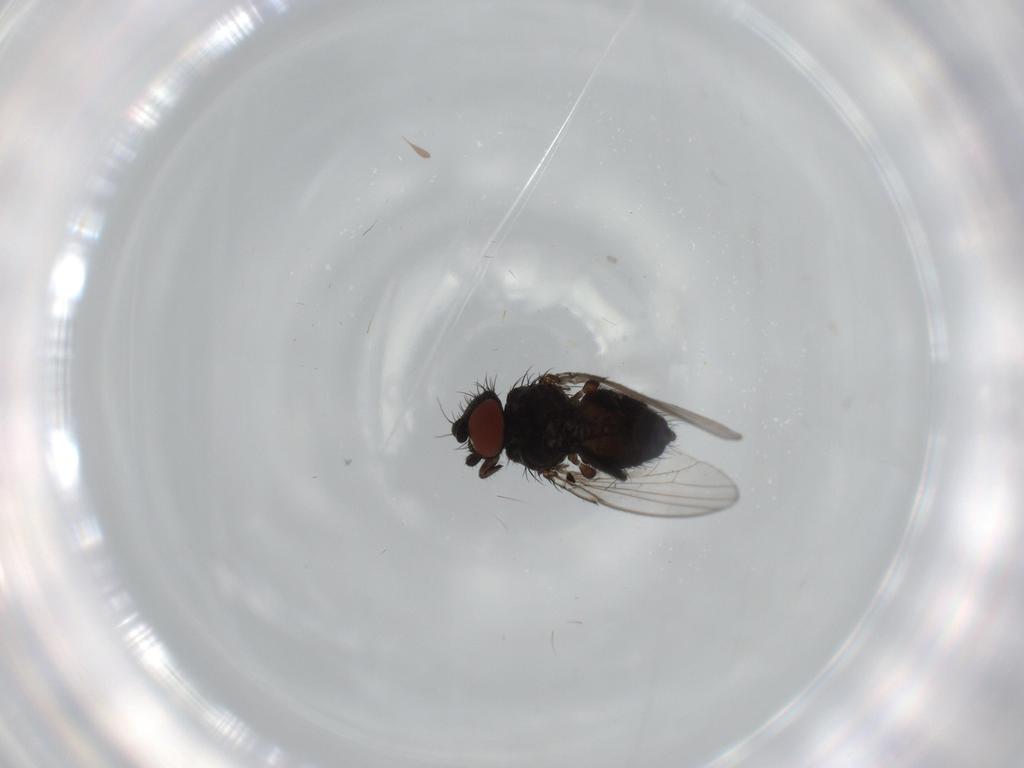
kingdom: Animalia
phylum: Arthropoda
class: Insecta
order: Diptera
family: Milichiidae
